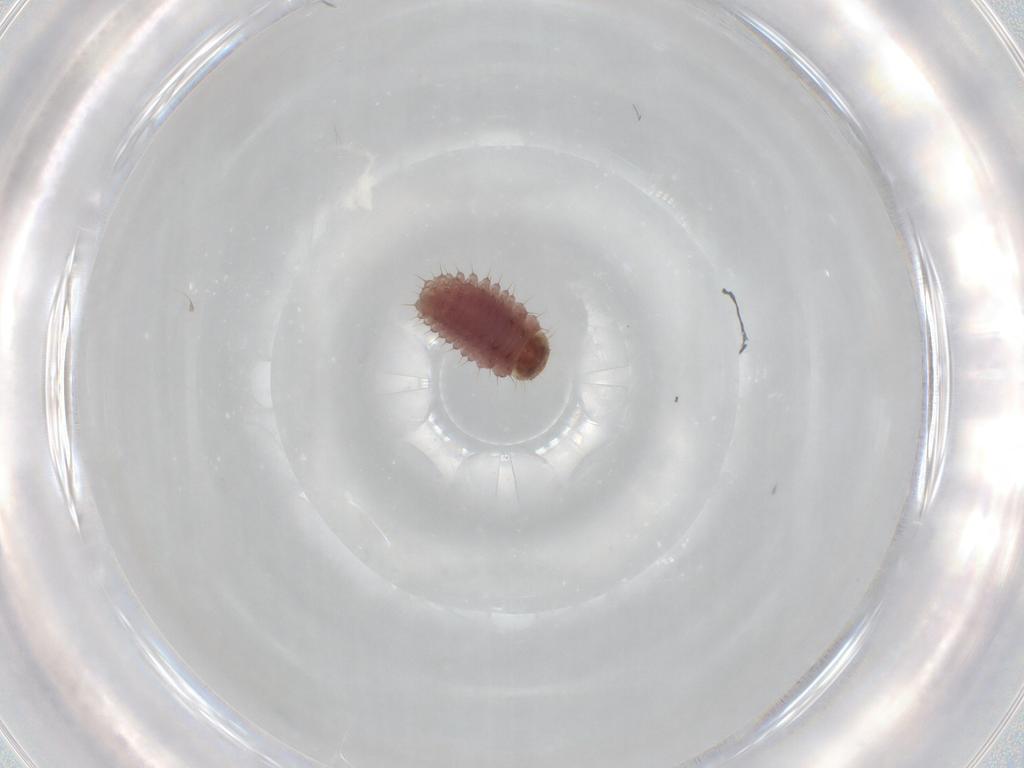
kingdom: Animalia
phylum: Arthropoda
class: Insecta
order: Coleoptera
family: Coccinellidae
